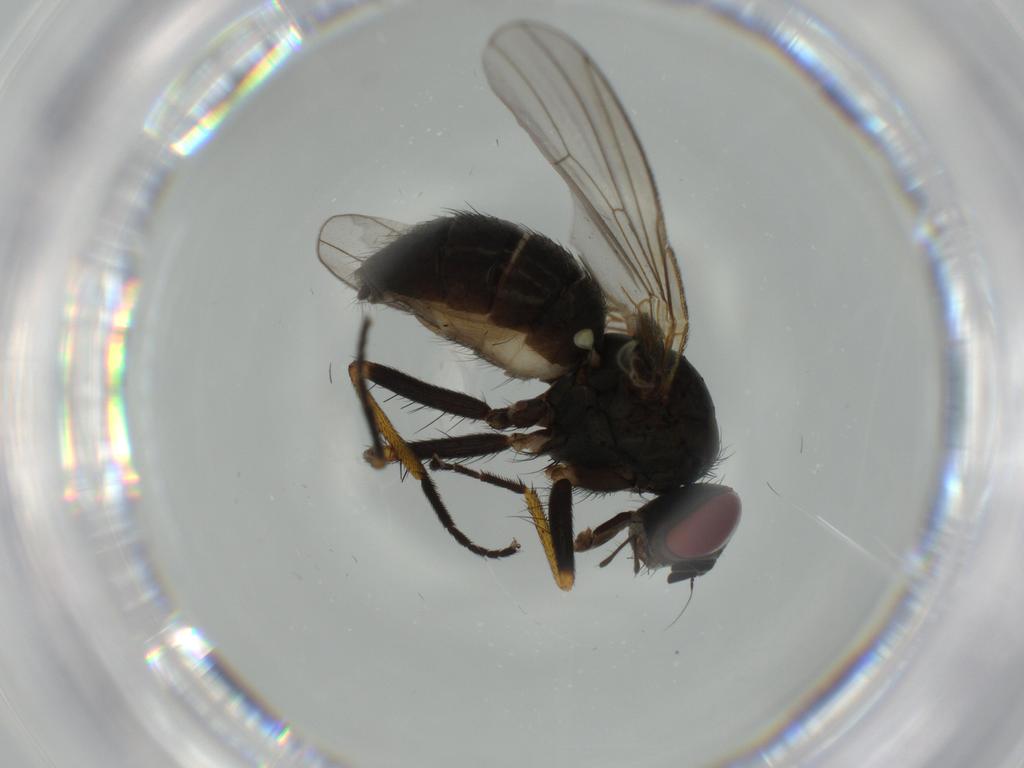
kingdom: Animalia
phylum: Arthropoda
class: Insecta
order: Diptera
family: Muscidae
